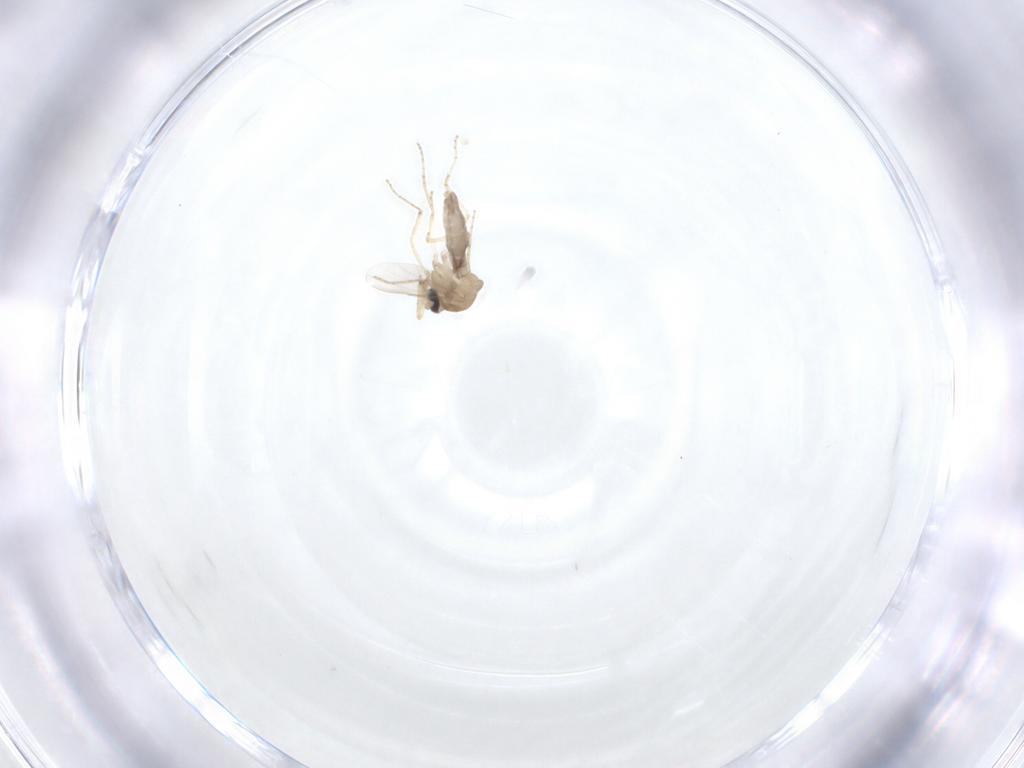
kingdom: Animalia
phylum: Arthropoda
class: Insecta
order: Diptera
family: Ceratopogonidae
